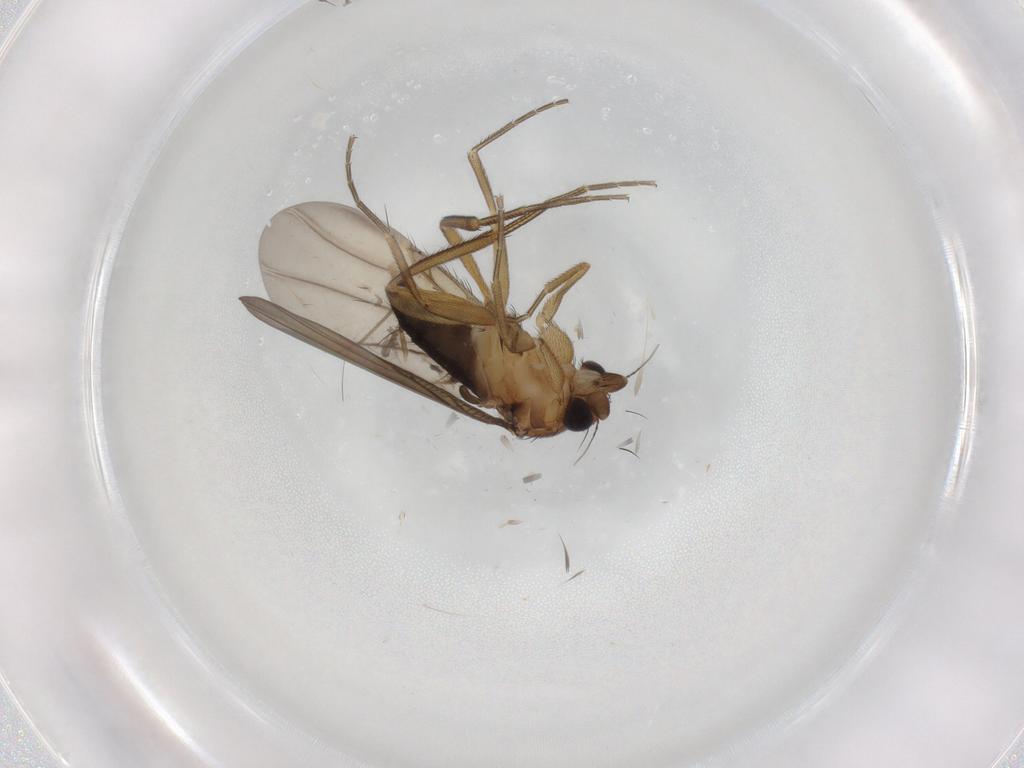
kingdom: Animalia
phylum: Arthropoda
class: Insecta
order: Diptera
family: Chironomidae
